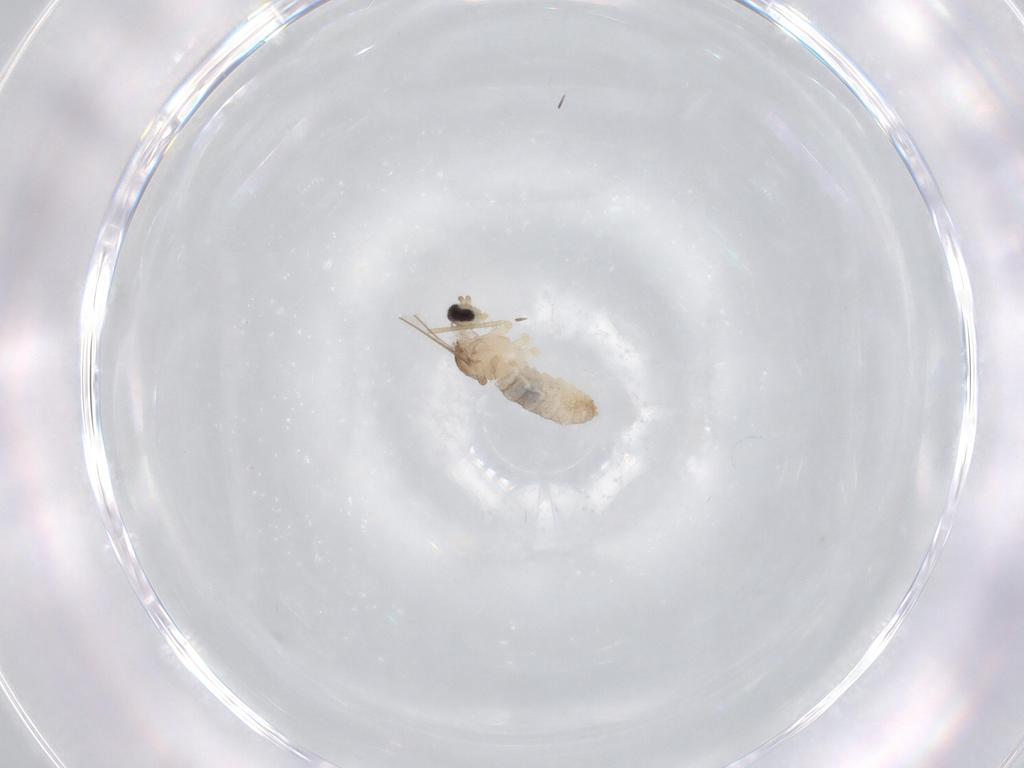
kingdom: Animalia
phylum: Arthropoda
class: Insecta
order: Diptera
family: Cecidomyiidae
